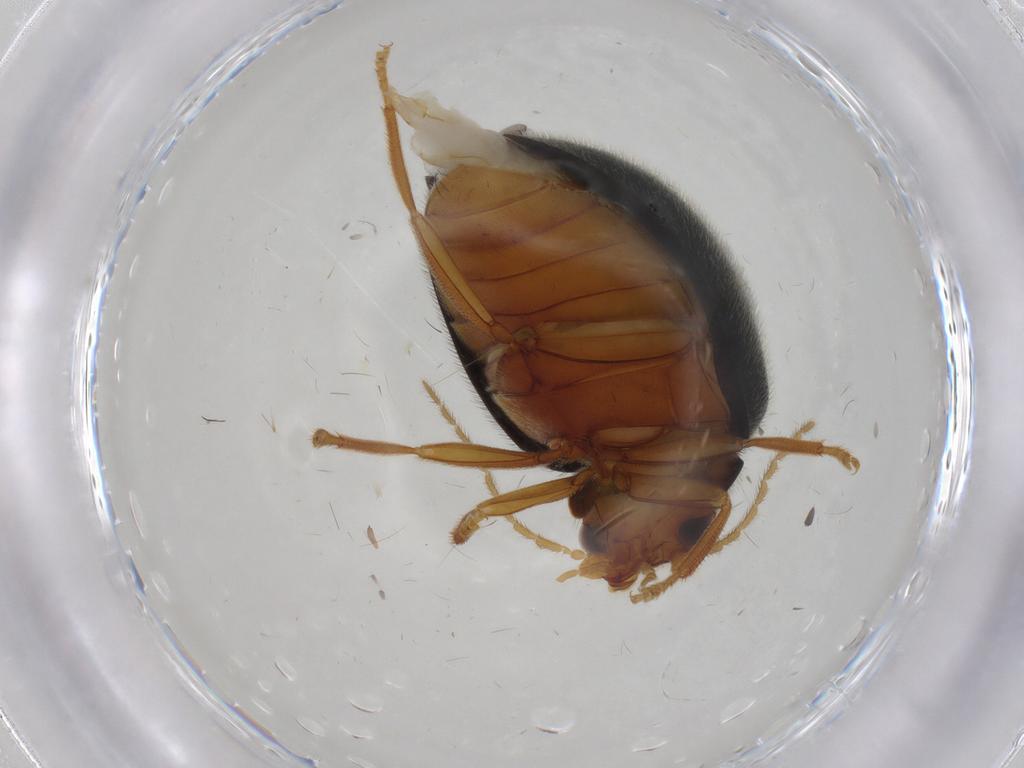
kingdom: Animalia
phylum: Arthropoda
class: Insecta
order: Coleoptera
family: Scirtidae
